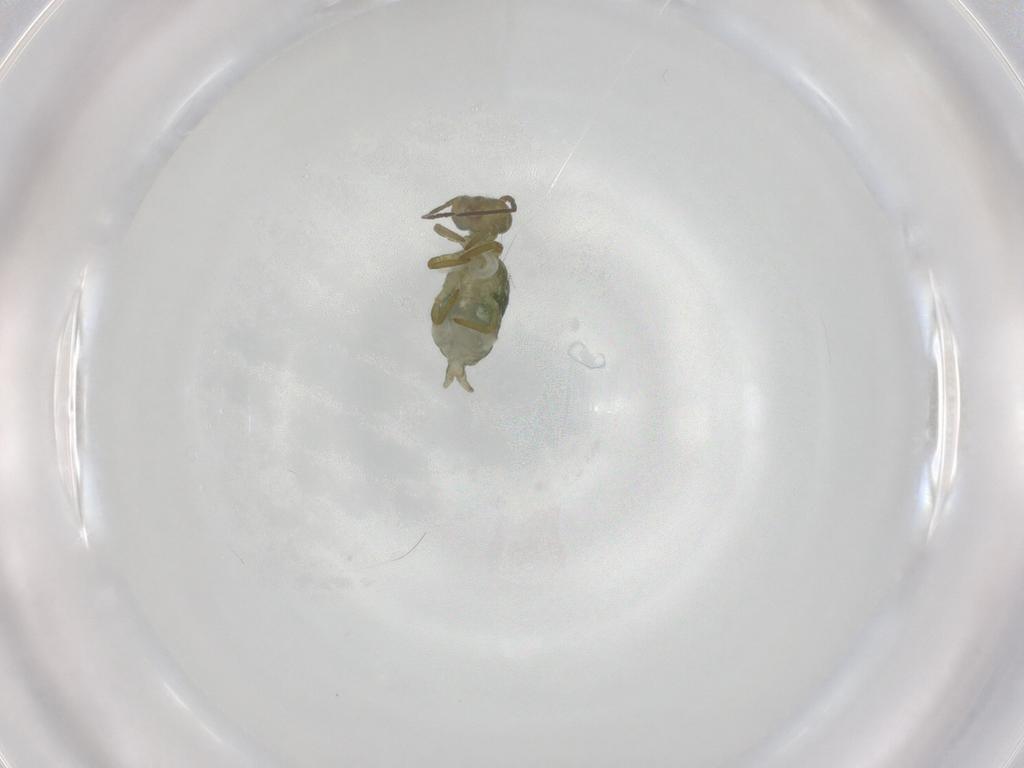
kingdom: Animalia
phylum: Arthropoda
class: Collembola
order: Symphypleona
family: Sminthuridae
